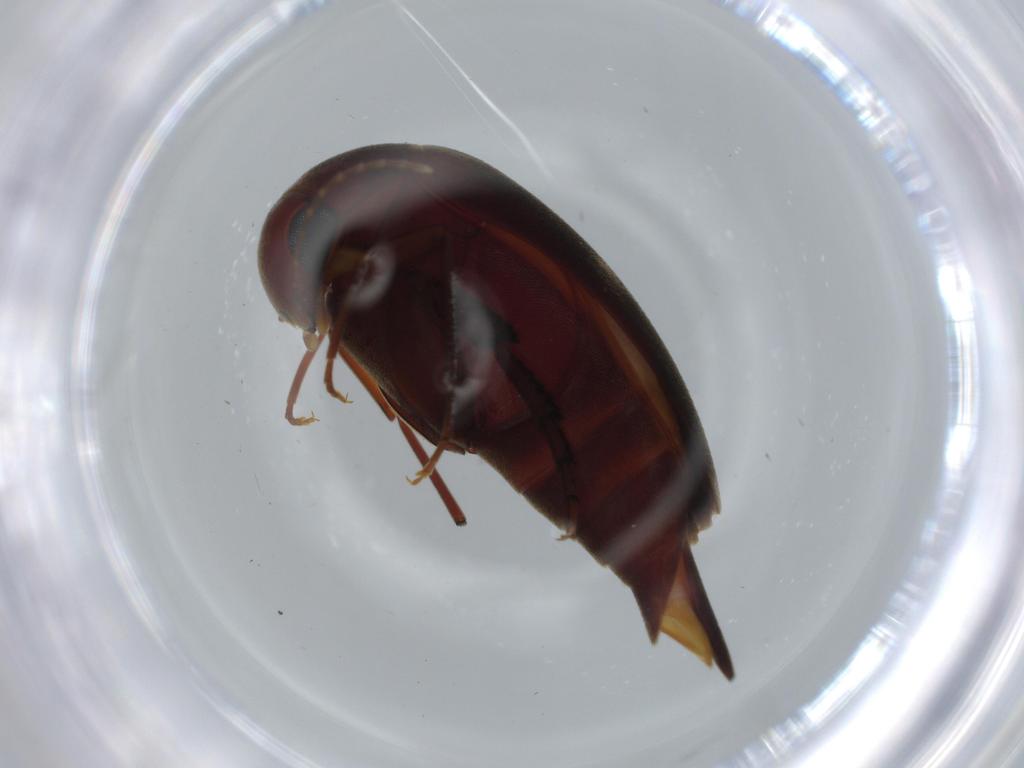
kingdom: Animalia
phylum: Arthropoda
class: Insecta
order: Coleoptera
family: Mordellidae
